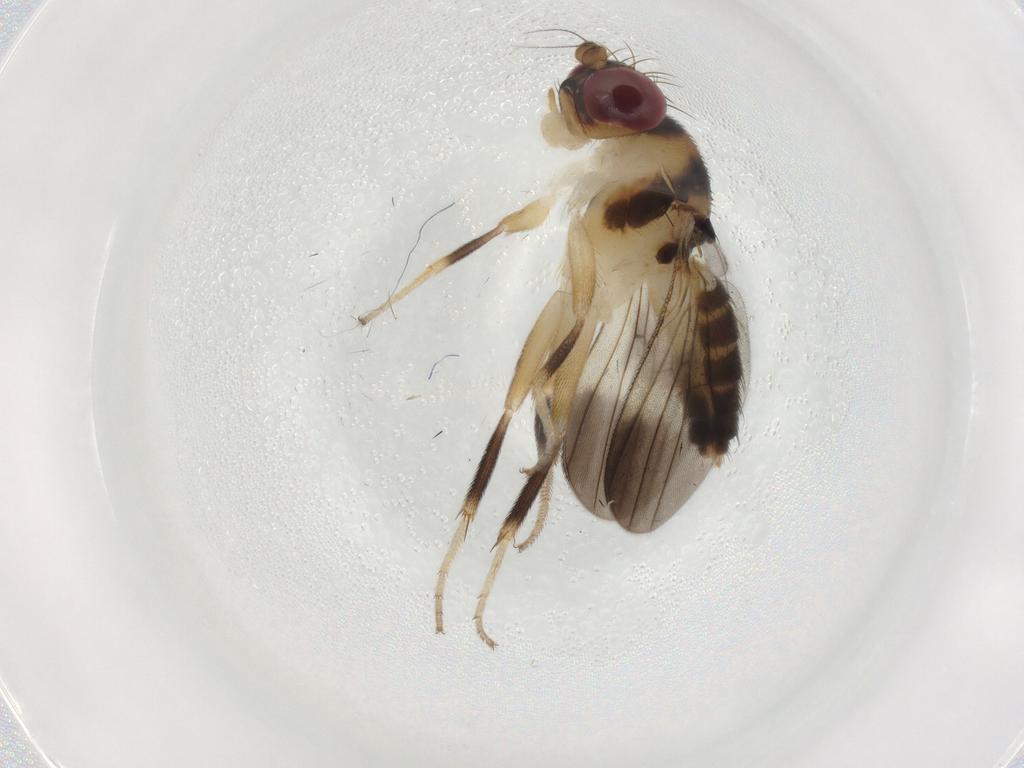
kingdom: Animalia
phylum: Arthropoda
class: Insecta
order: Diptera
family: Clusiidae
